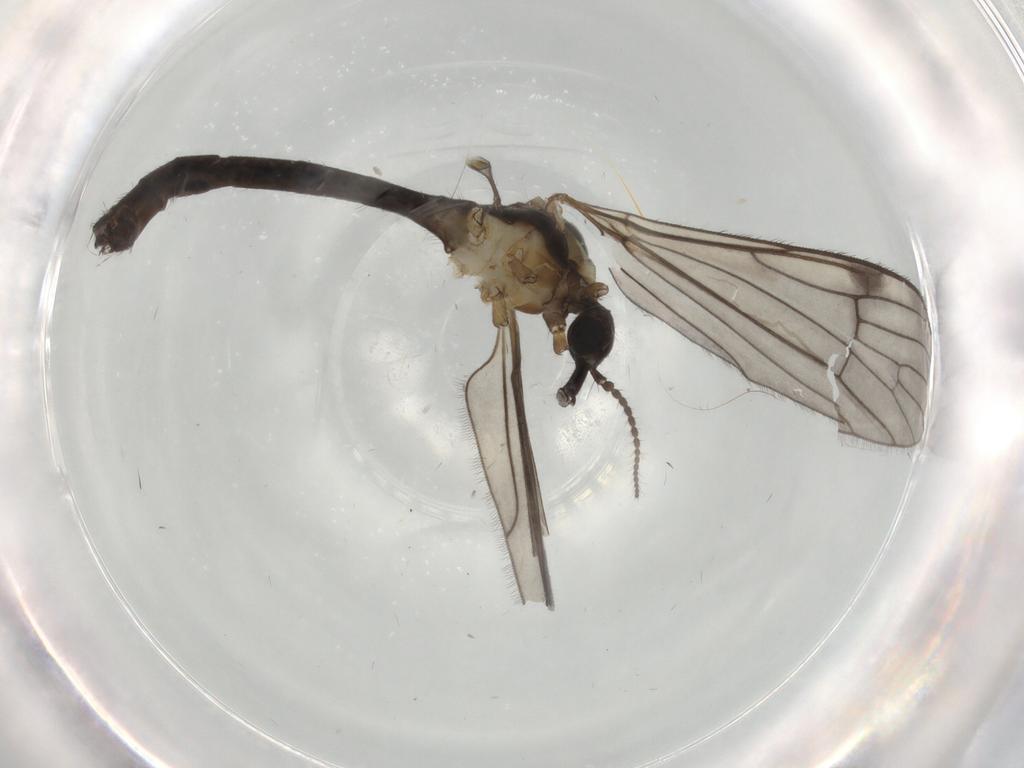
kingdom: Animalia
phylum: Arthropoda
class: Insecta
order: Diptera
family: Limoniidae
